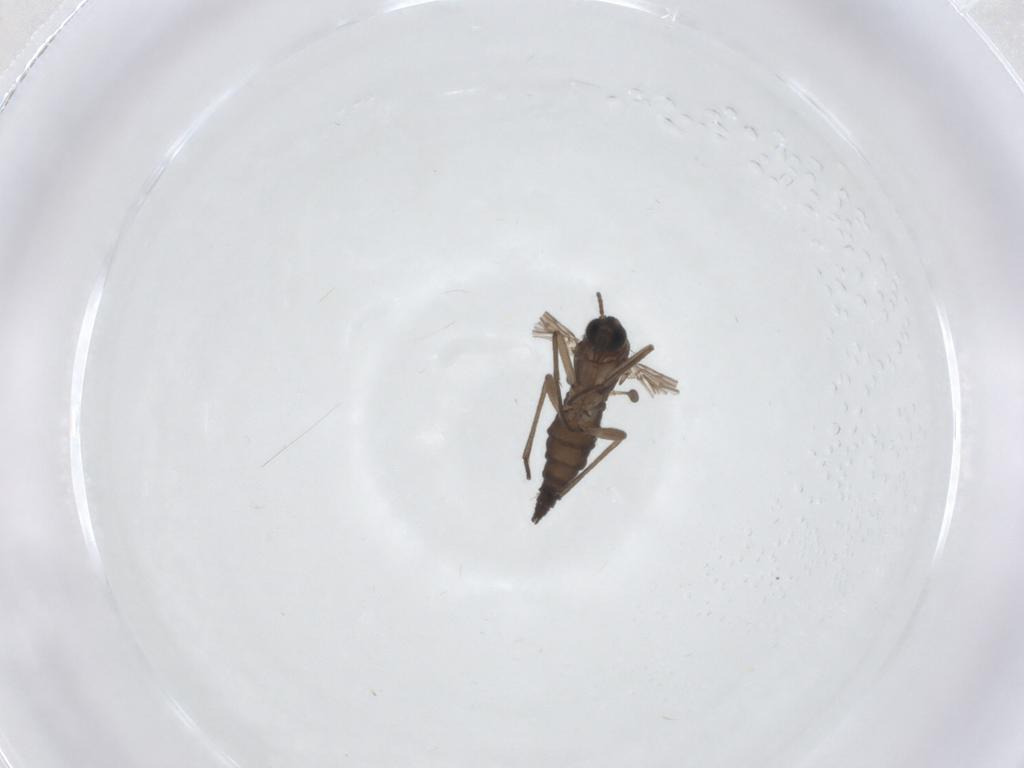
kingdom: Animalia
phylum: Arthropoda
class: Insecta
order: Diptera
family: Sciaridae
